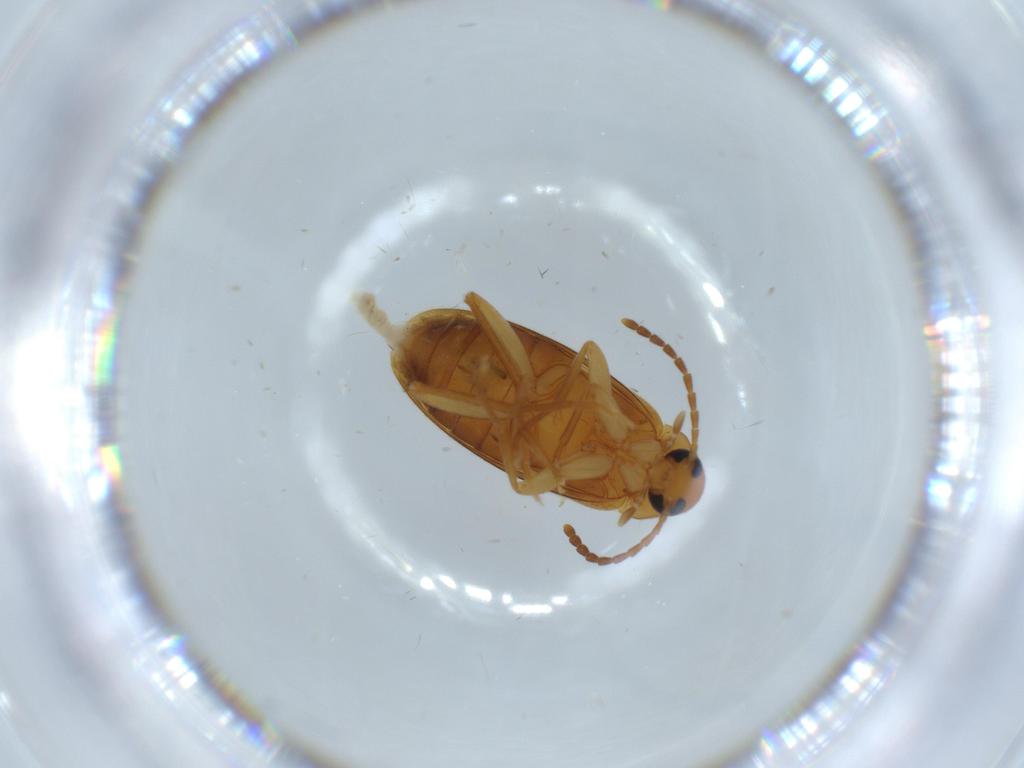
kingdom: Animalia
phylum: Arthropoda
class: Insecta
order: Coleoptera
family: Scraptiidae
